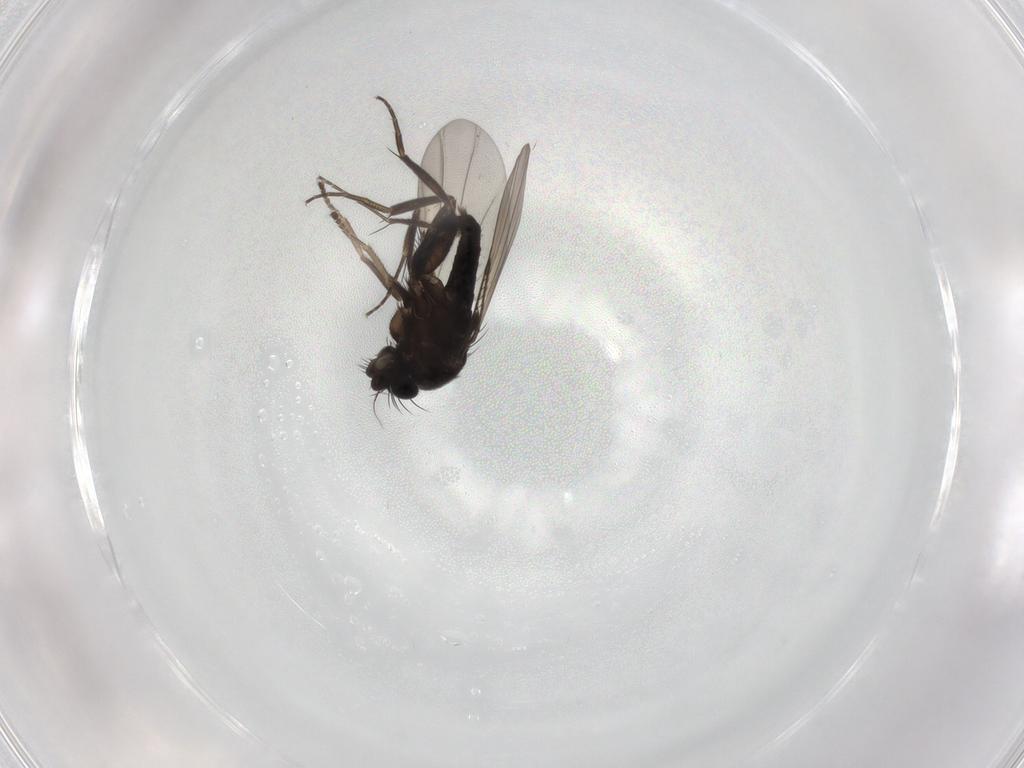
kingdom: Animalia
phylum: Arthropoda
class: Insecta
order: Diptera
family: Phoridae
